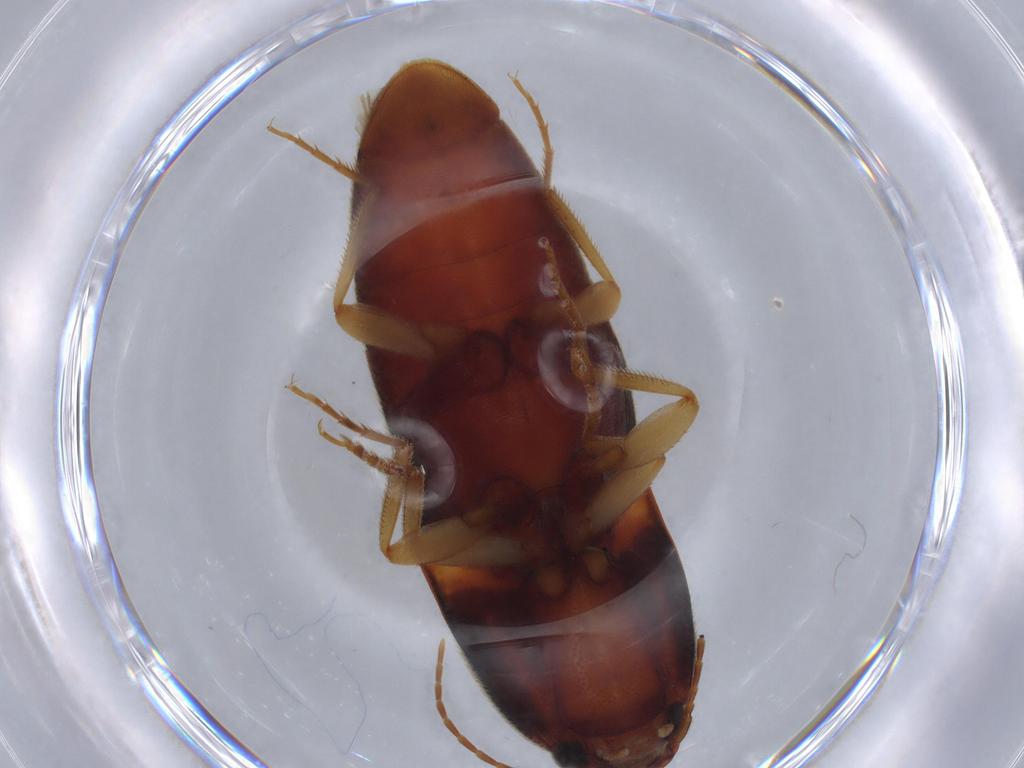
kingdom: Animalia
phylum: Arthropoda
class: Insecta
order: Coleoptera
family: Elateridae
